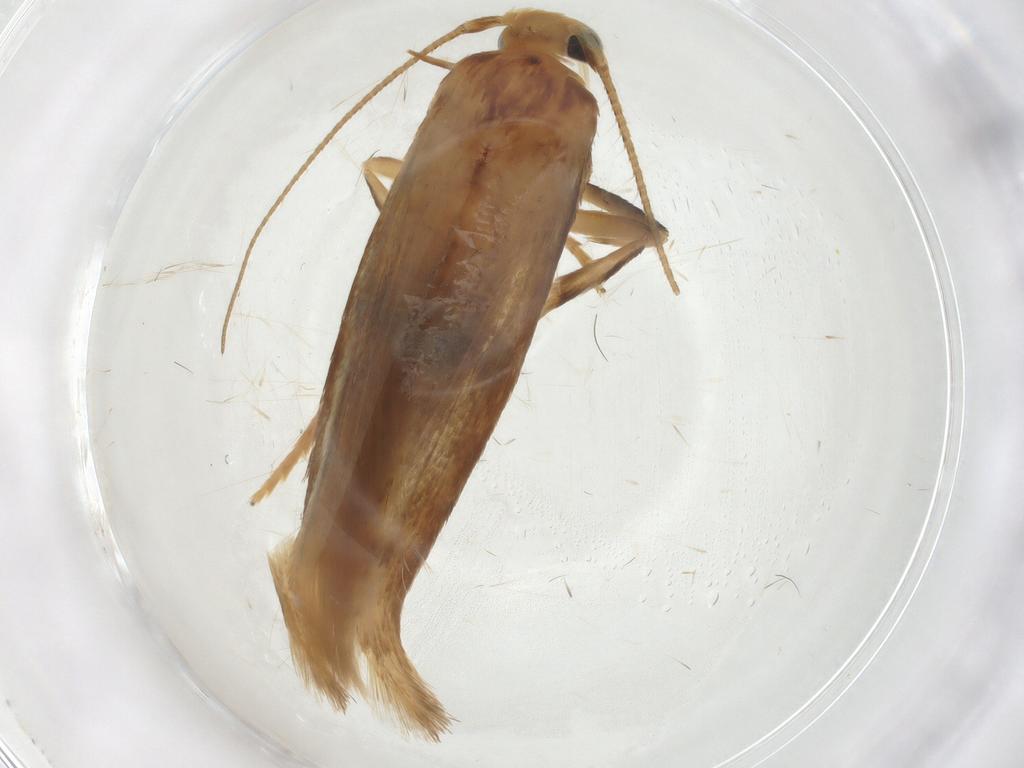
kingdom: Animalia
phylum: Arthropoda
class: Insecta
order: Lepidoptera
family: Stathmopodidae
